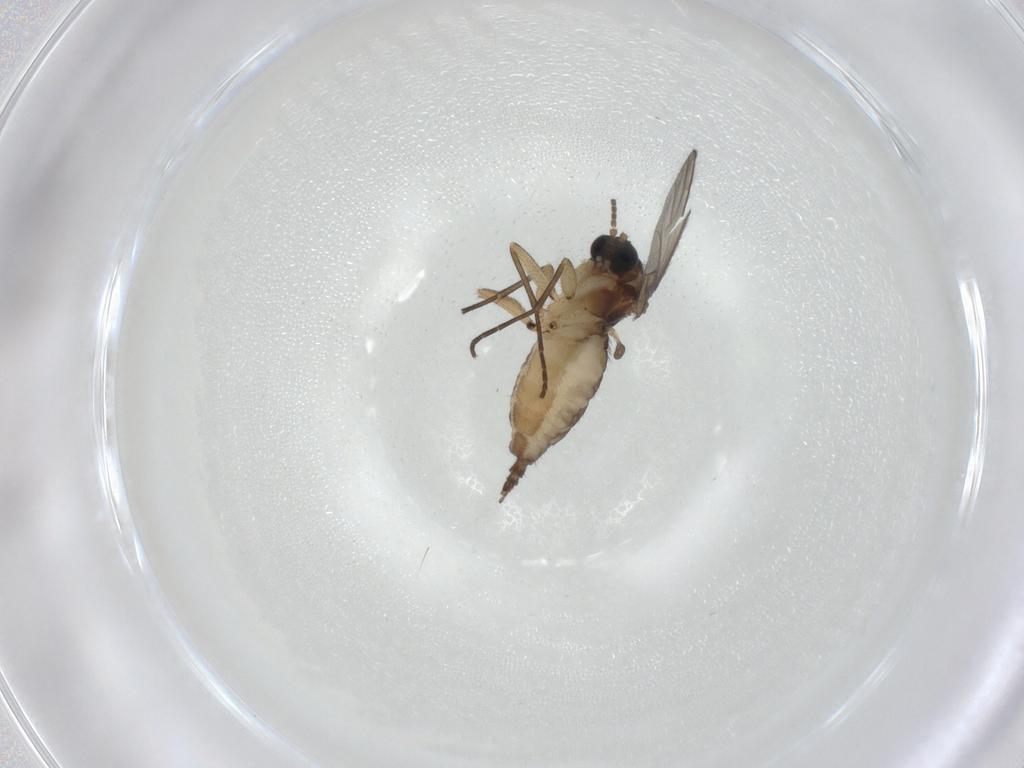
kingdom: Animalia
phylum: Arthropoda
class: Insecta
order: Diptera
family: Sciaridae
